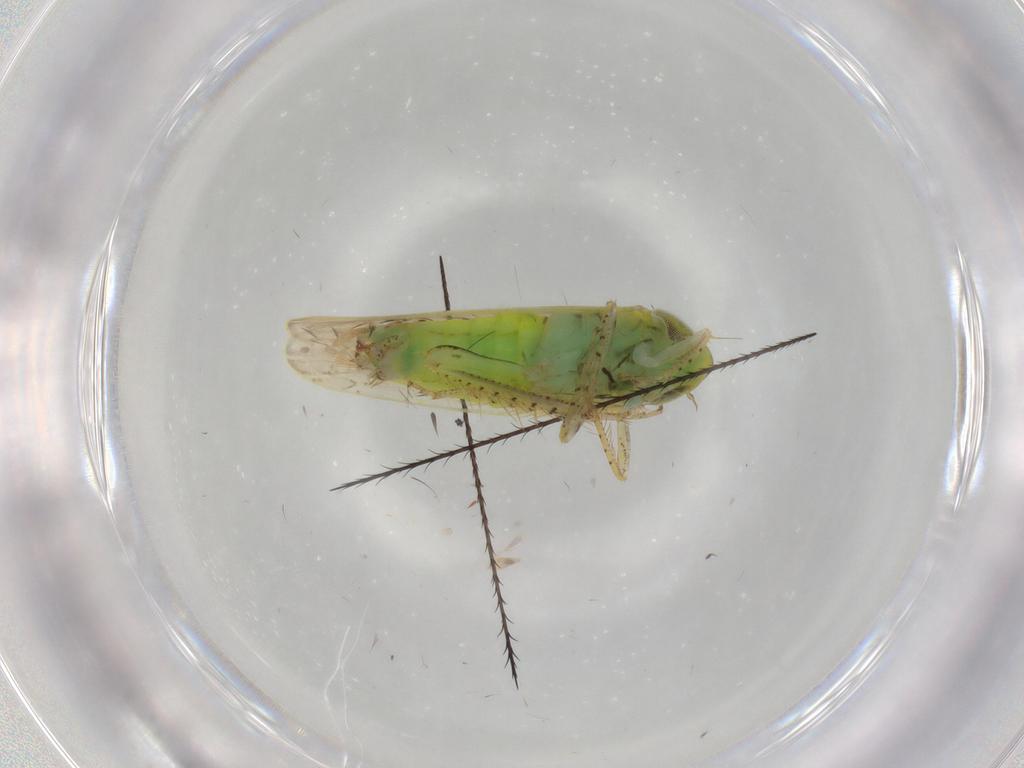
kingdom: Animalia
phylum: Arthropoda
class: Insecta
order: Hemiptera
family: Cicadellidae
